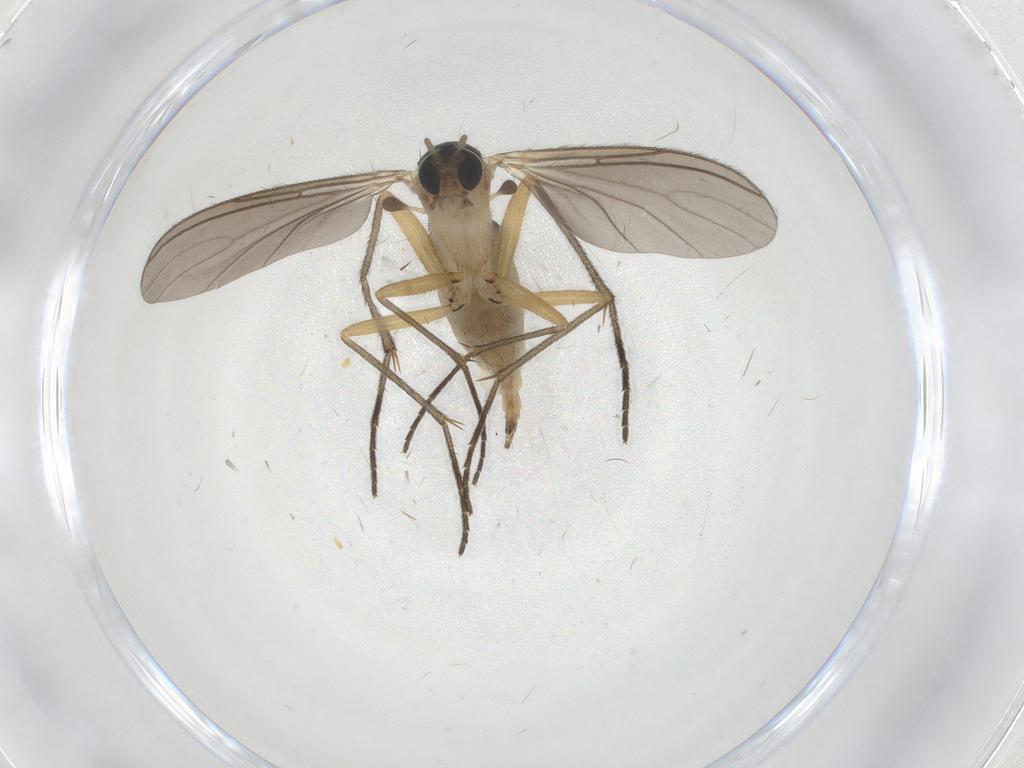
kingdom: Animalia
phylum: Arthropoda
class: Insecta
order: Diptera
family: Sciaridae
